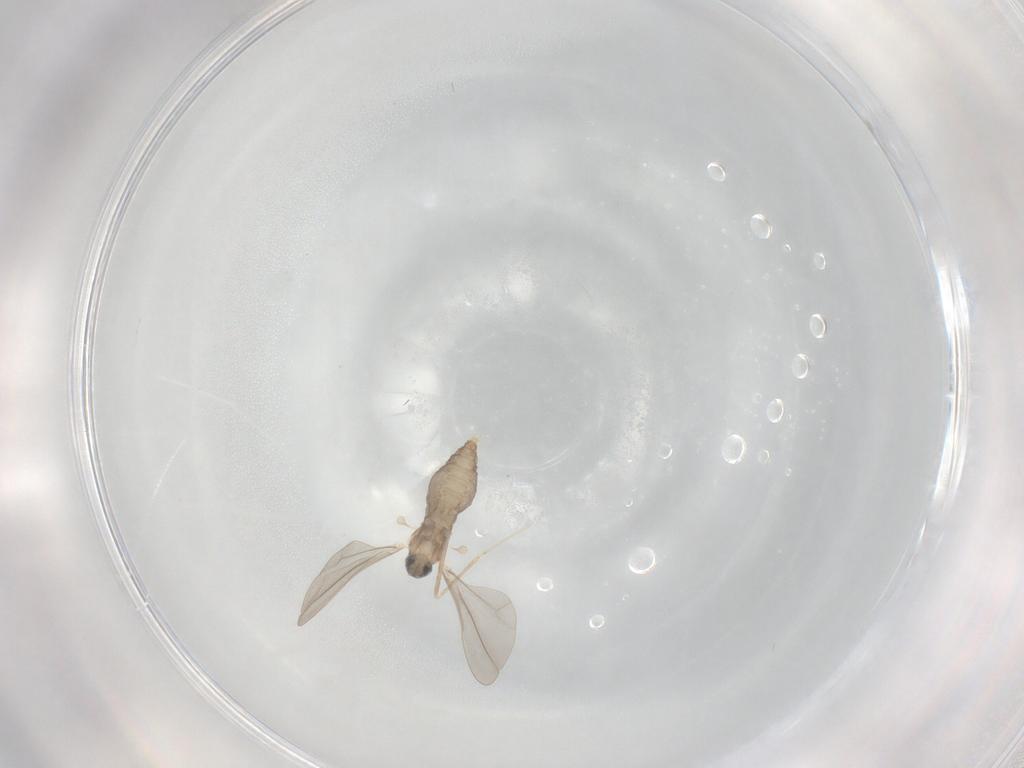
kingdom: Animalia
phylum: Arthropoda
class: Insecta
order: Diptera
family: Cecidomyiidae
